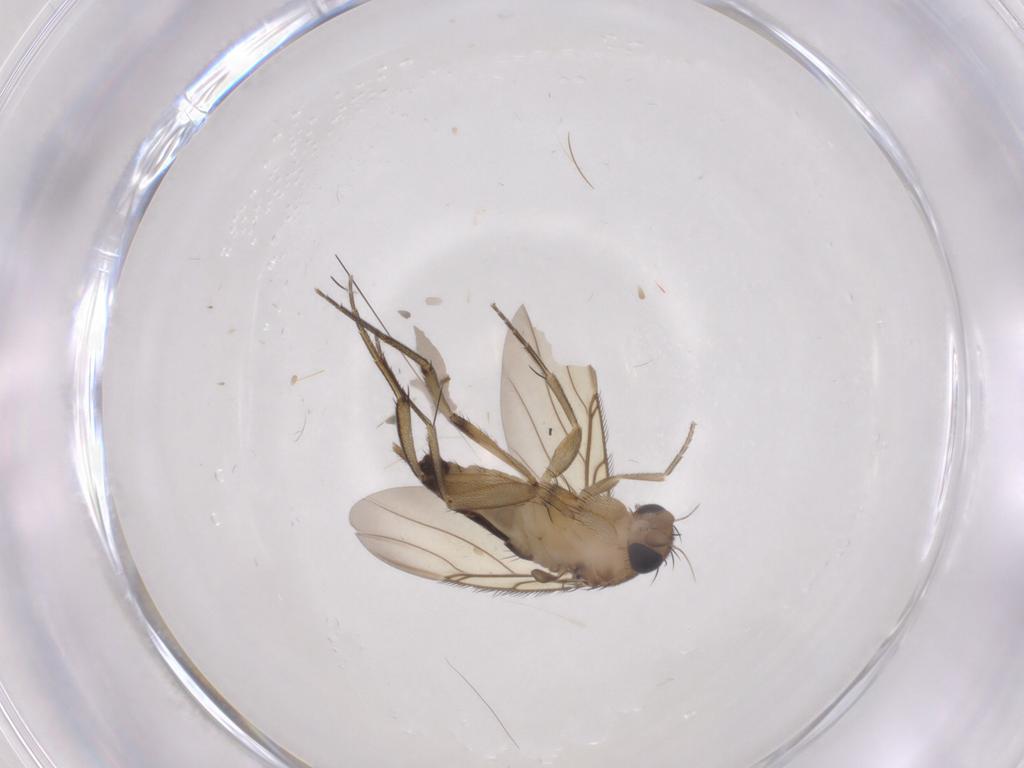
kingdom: Animalia
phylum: Arthropoda
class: Insecta
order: Diptera
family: Phoridae
